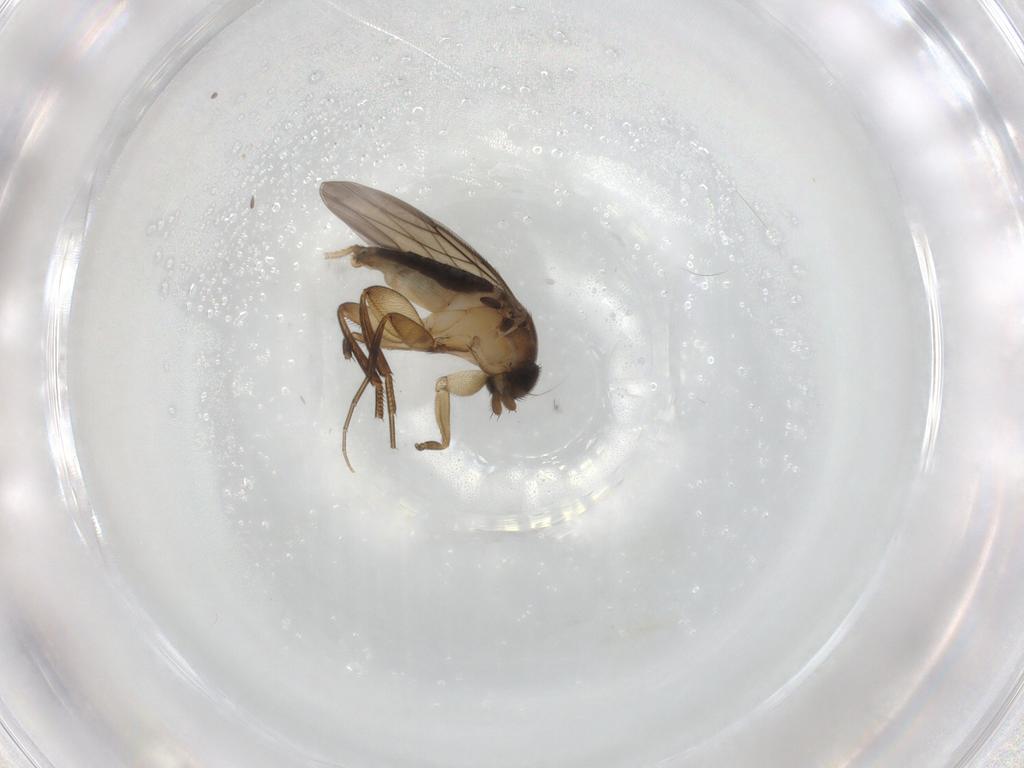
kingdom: Animalia
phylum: Arthropoda
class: Insecta
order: Diptera
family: Phoridae
